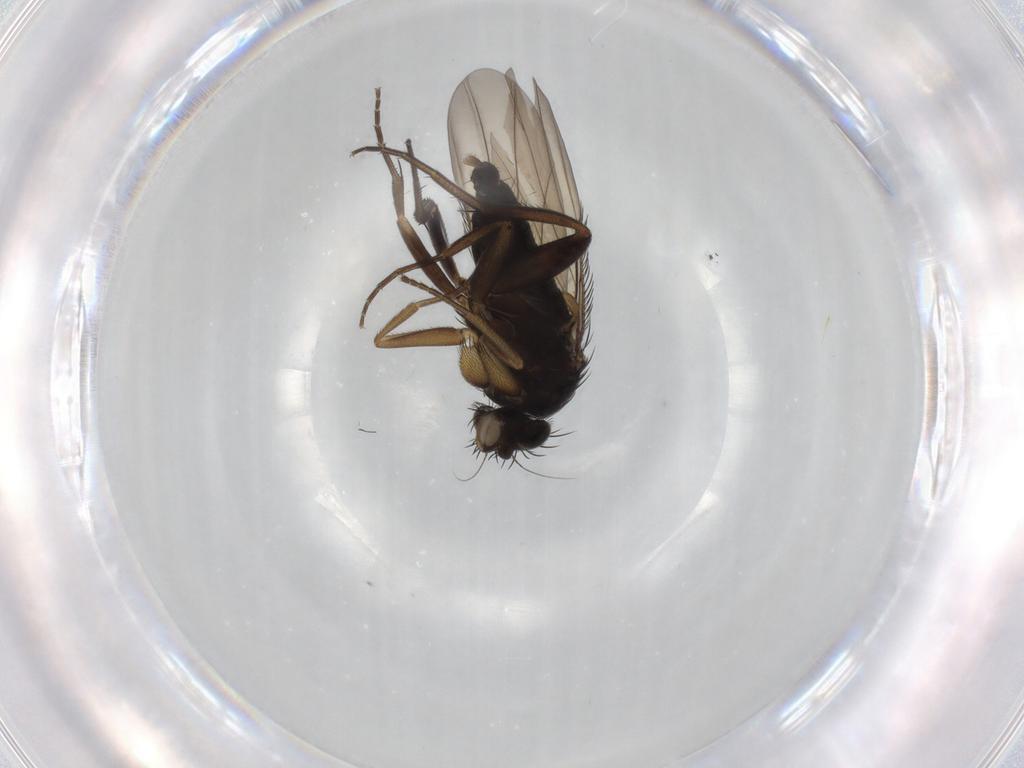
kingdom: Animalia
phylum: Arthropoda
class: Insecta
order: Diptera
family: Phoridae
